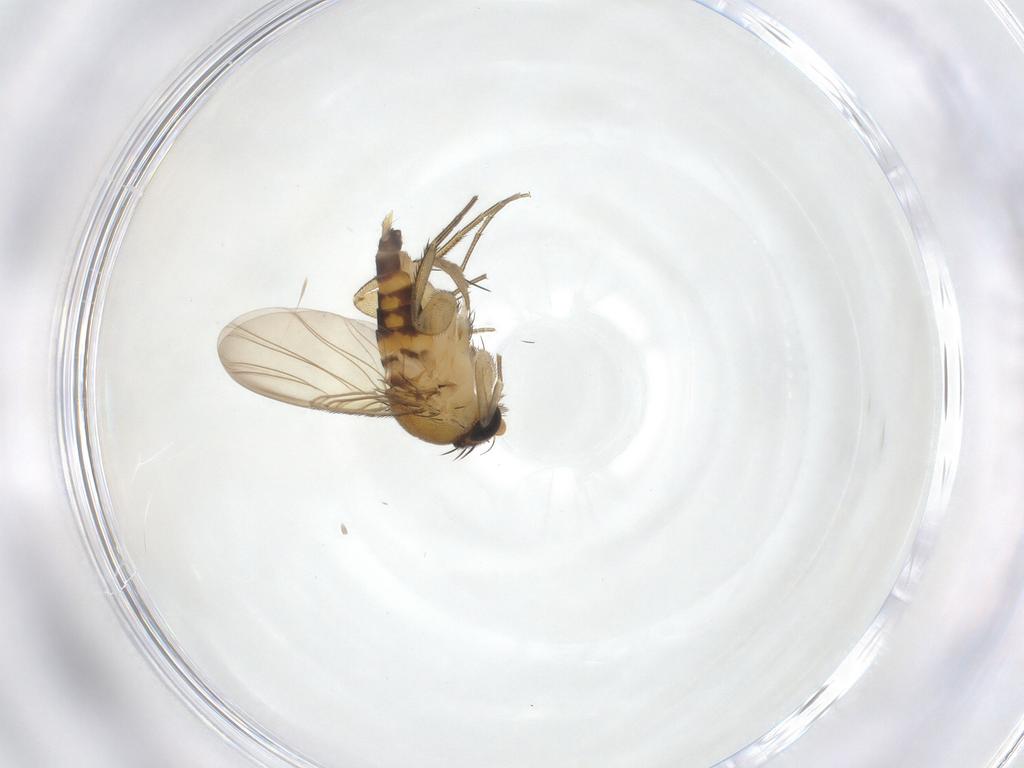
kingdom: Animalia
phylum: Arthropoda
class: Insecta
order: Diptera
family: Phoridae
